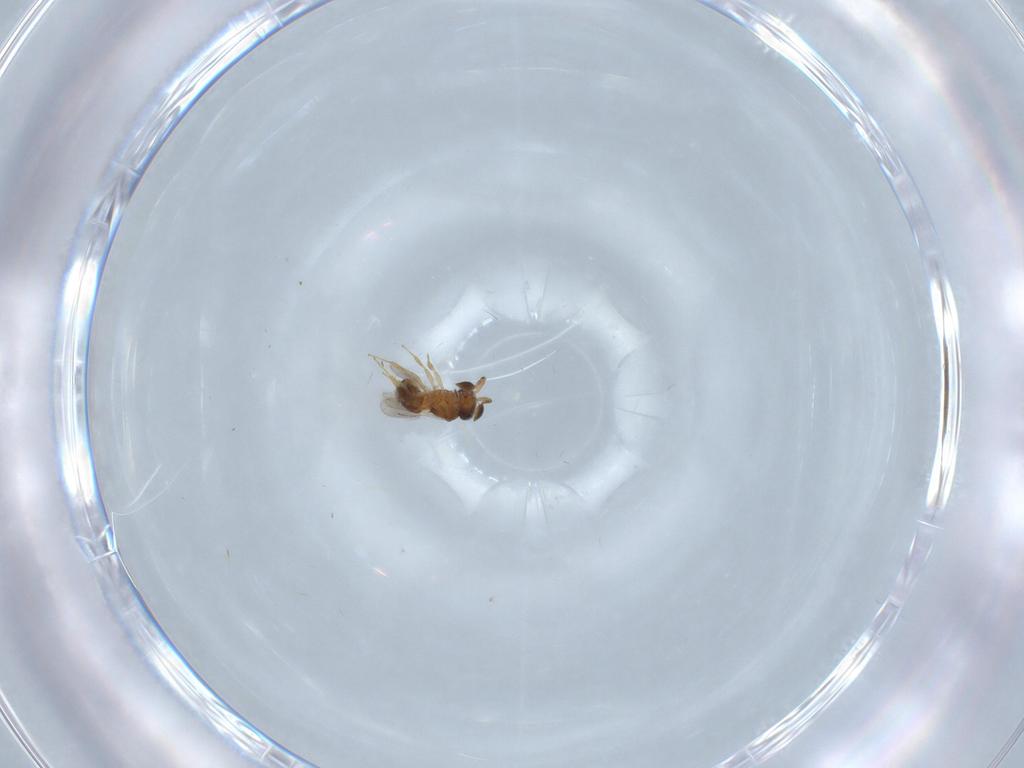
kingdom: Animalia
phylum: Arthropoda
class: Insecta
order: Hymenoptera
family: Scelionidae
